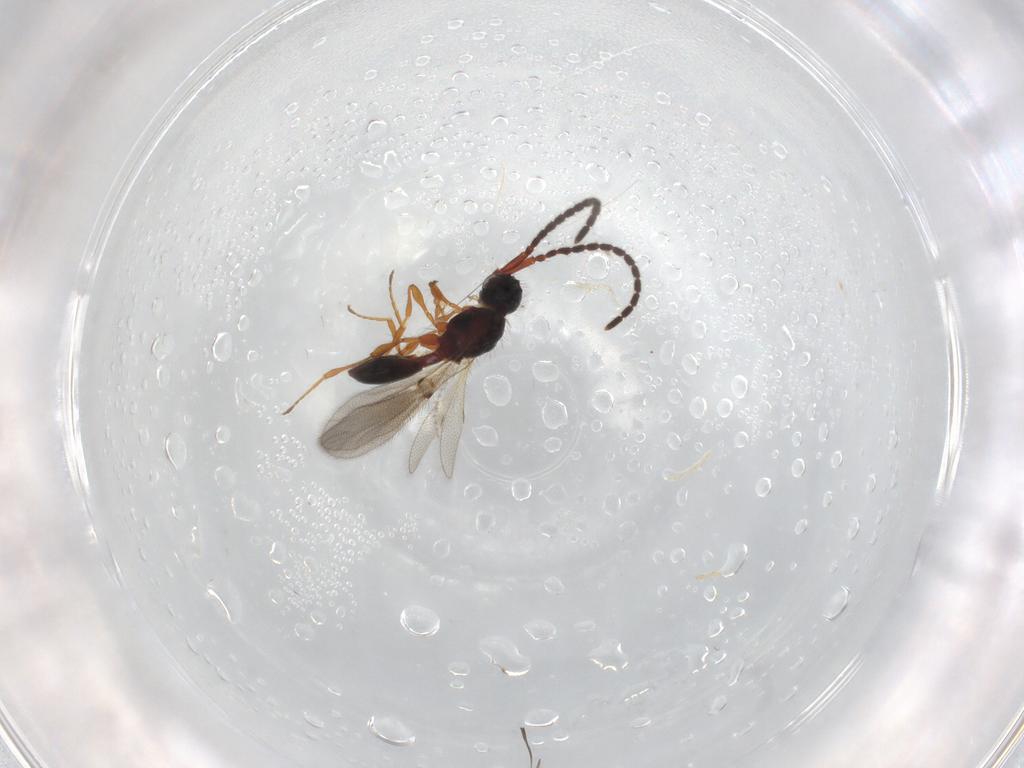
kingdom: Animalia
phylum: Arthropoda
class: Insecta
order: Hymenoptera
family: Diapriidae
